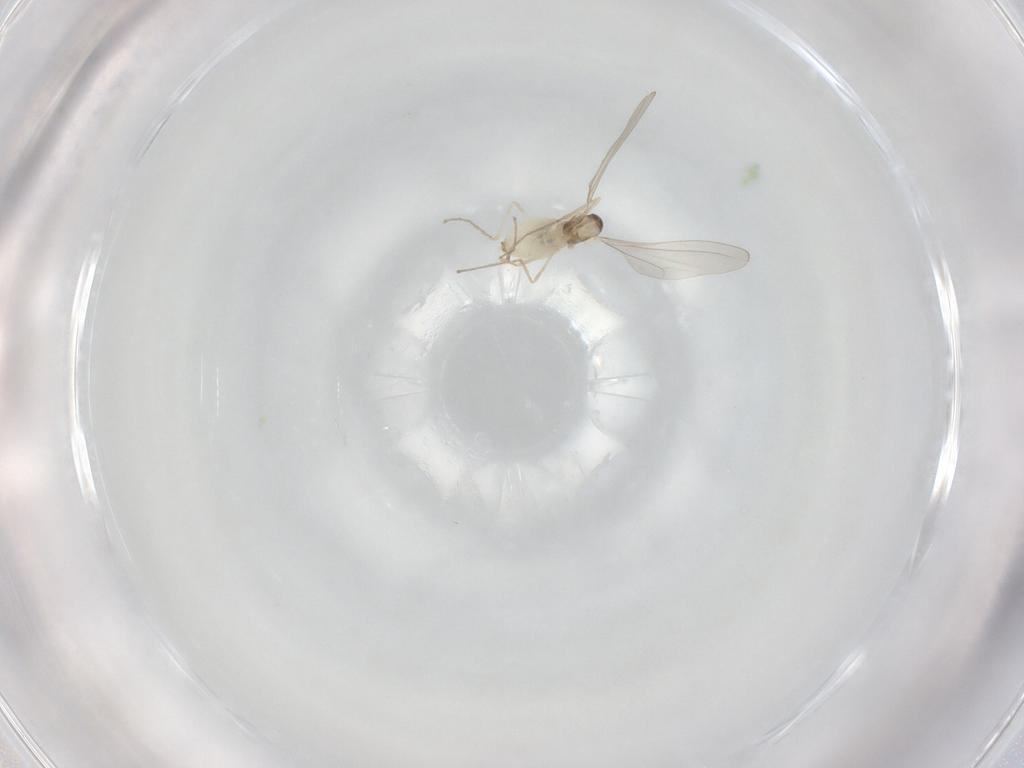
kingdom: Animalia
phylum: Arthropoda
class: Insecta
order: Diptera
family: Cecidomyiidae
